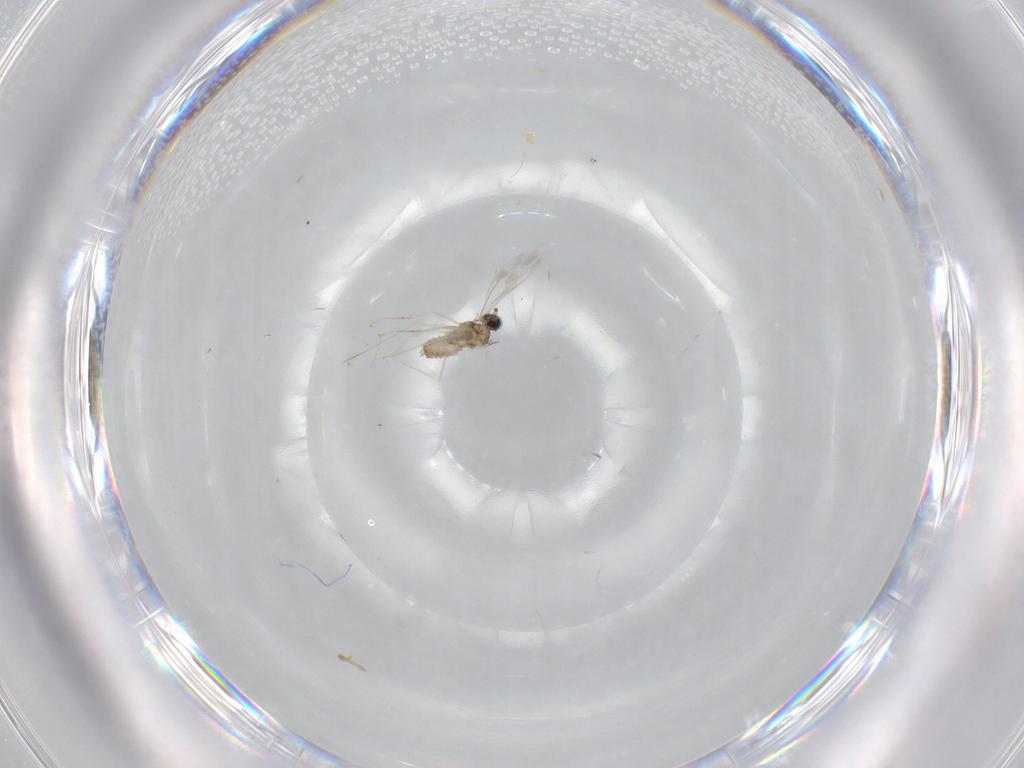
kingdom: Animalia
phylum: Arthropoda
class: Insecta
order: Diptera
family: Cecidomyiidae
